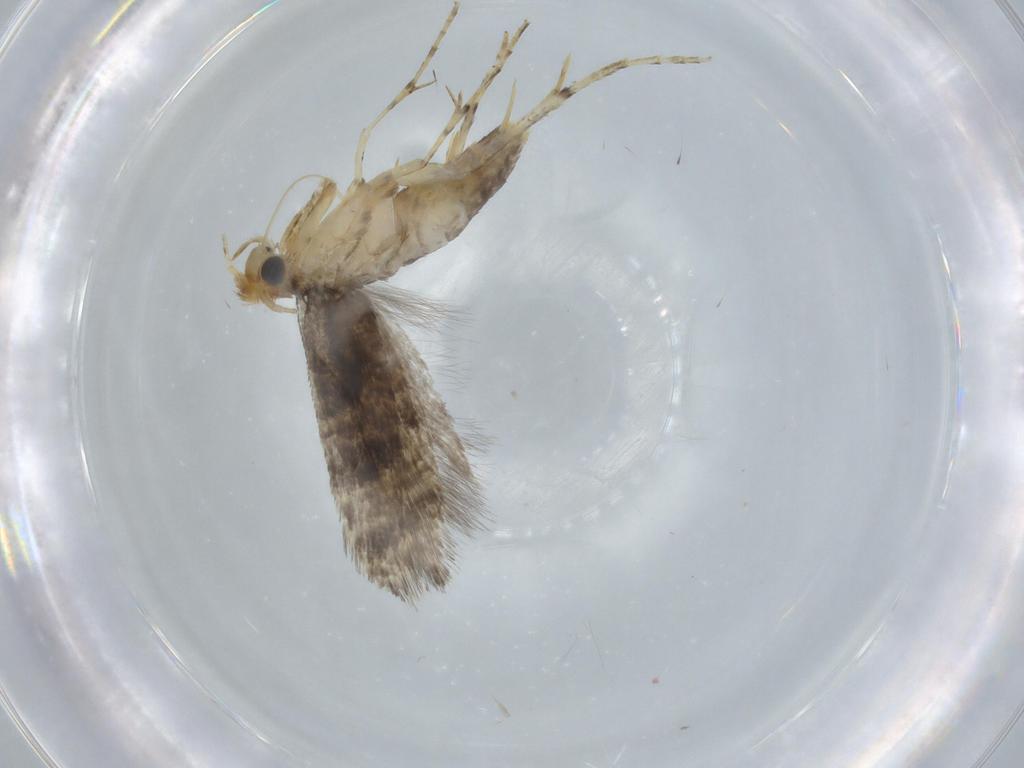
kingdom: Animalia
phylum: Arthropoda
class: Insecta
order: Lepidoptera
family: Argyresthiidae
